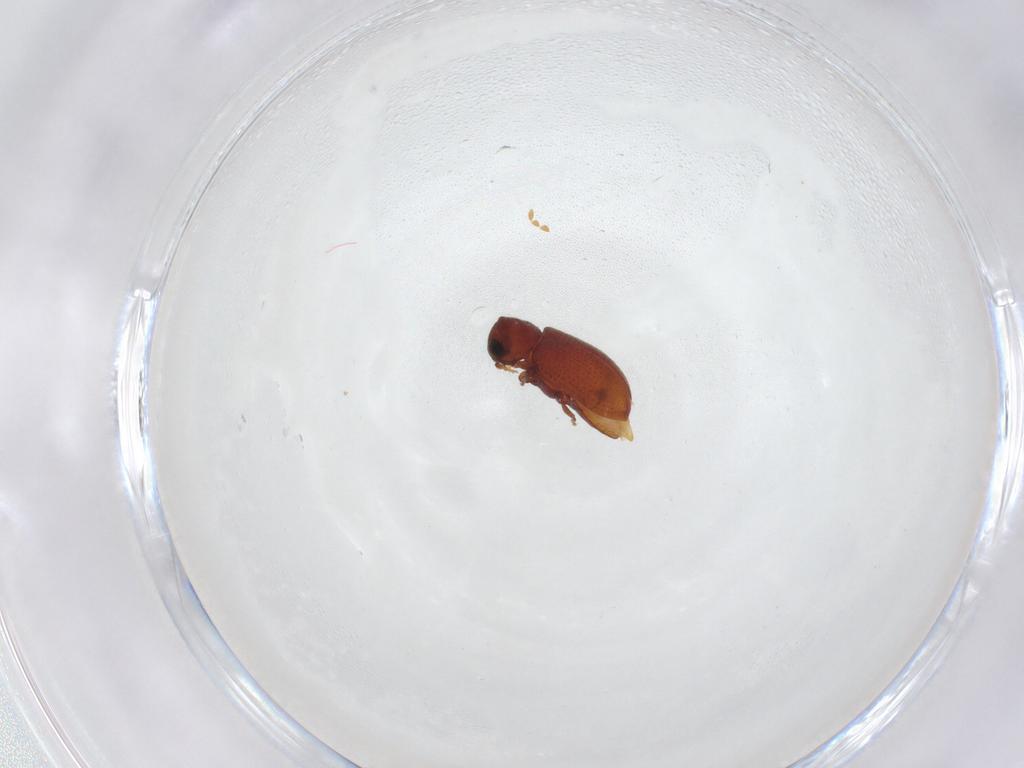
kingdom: Animalia
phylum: Arthropoda
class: Insecta
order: Coleoptera
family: Ptinidae
